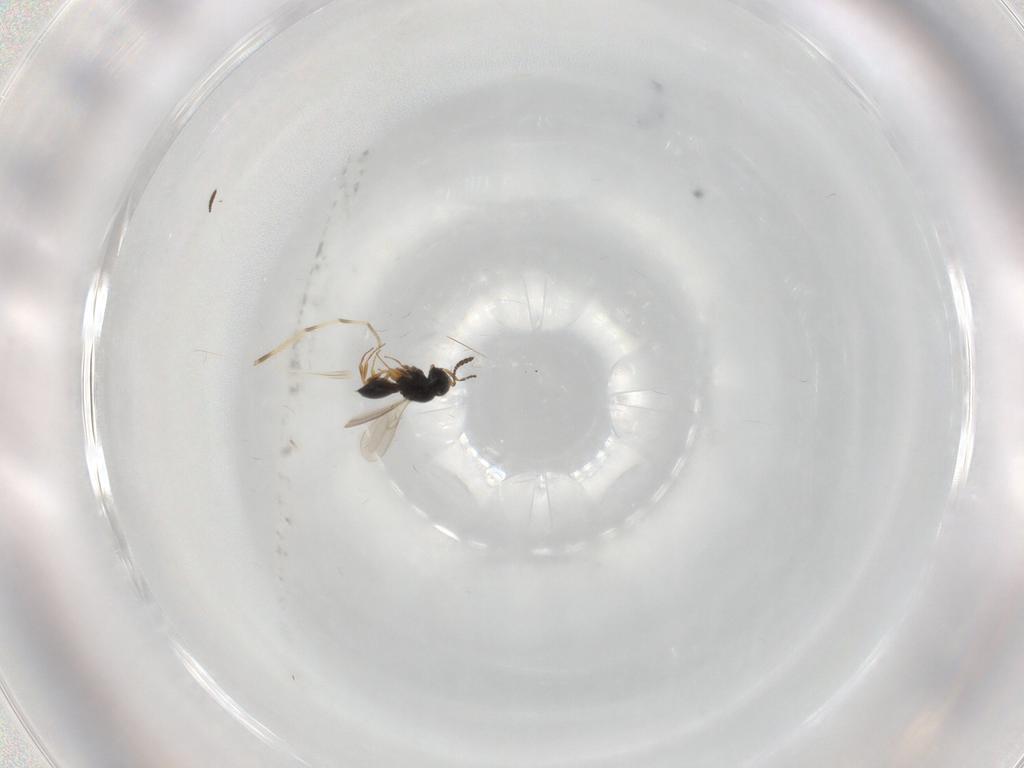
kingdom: Animalia
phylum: Arthropoda
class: Insecta
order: Hymenoptera
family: Scelionidae
